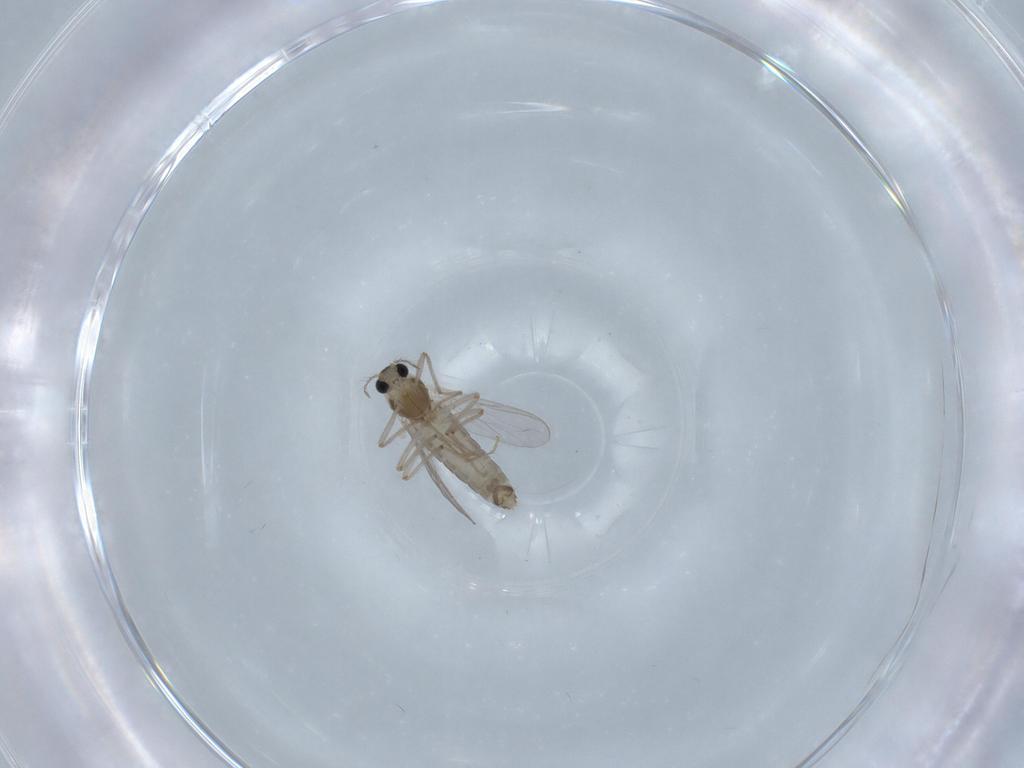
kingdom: Animalia
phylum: Arthropoda
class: Insecta
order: Diptera
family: Chironomidae
